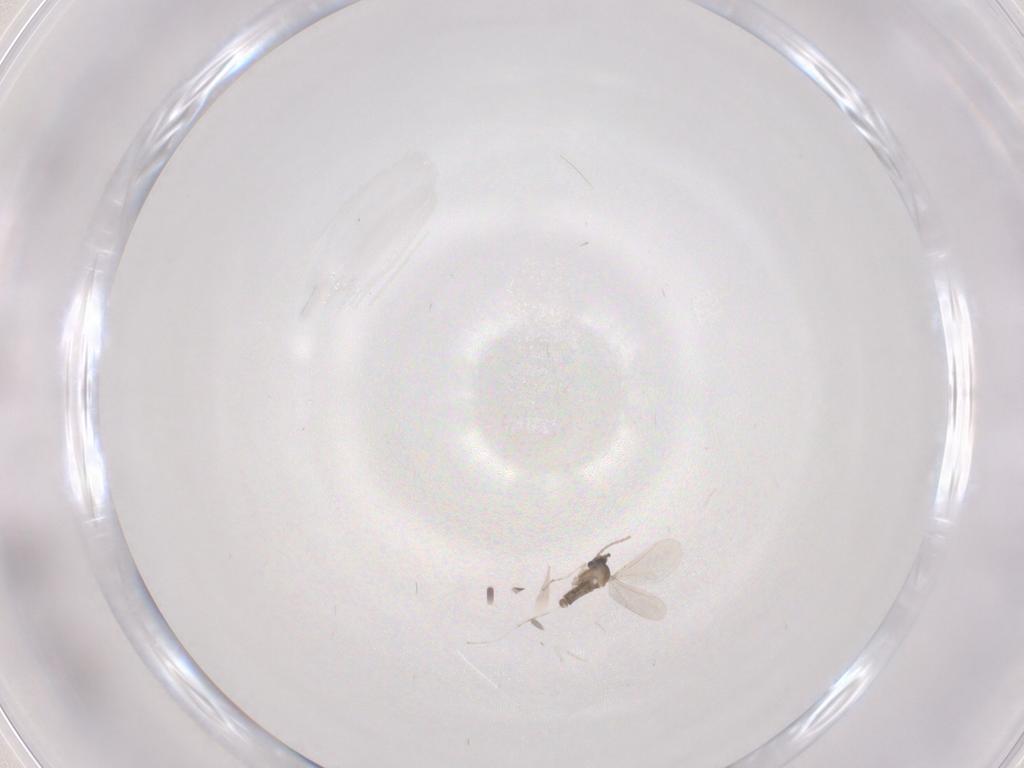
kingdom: Animalia
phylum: Arthropoda
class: Insecta
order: Diptera
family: Cecidomyiidae
